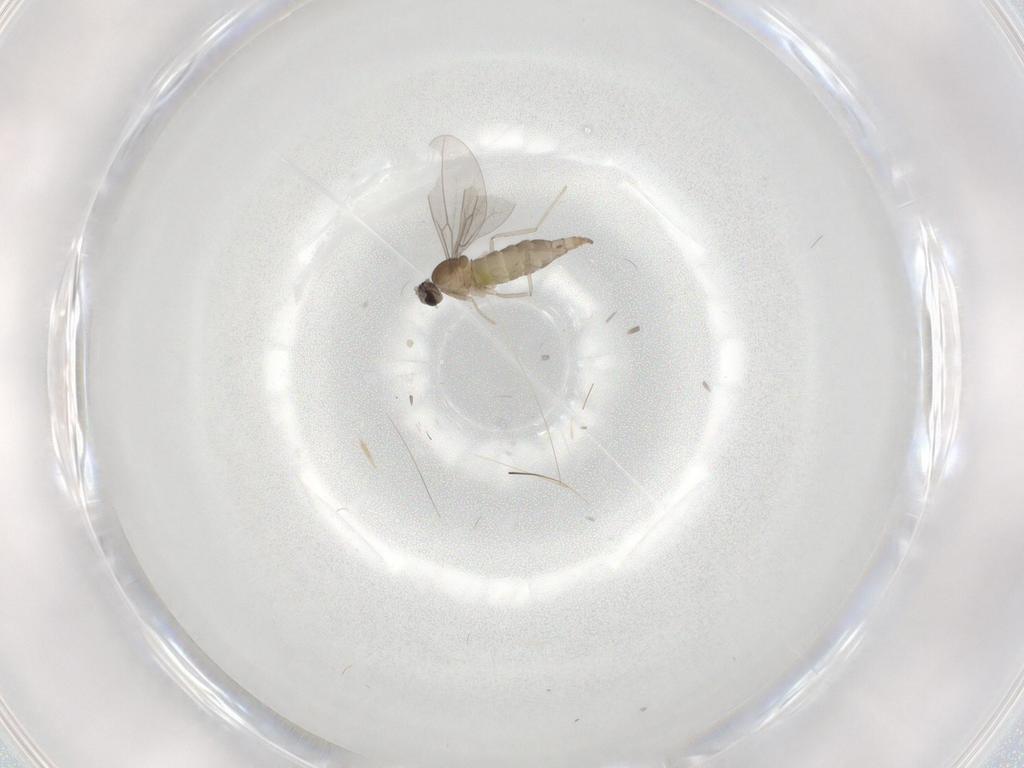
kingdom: Animalia
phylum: Arthropoda
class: Insecta
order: Diptera
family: Cecidomyiidae
